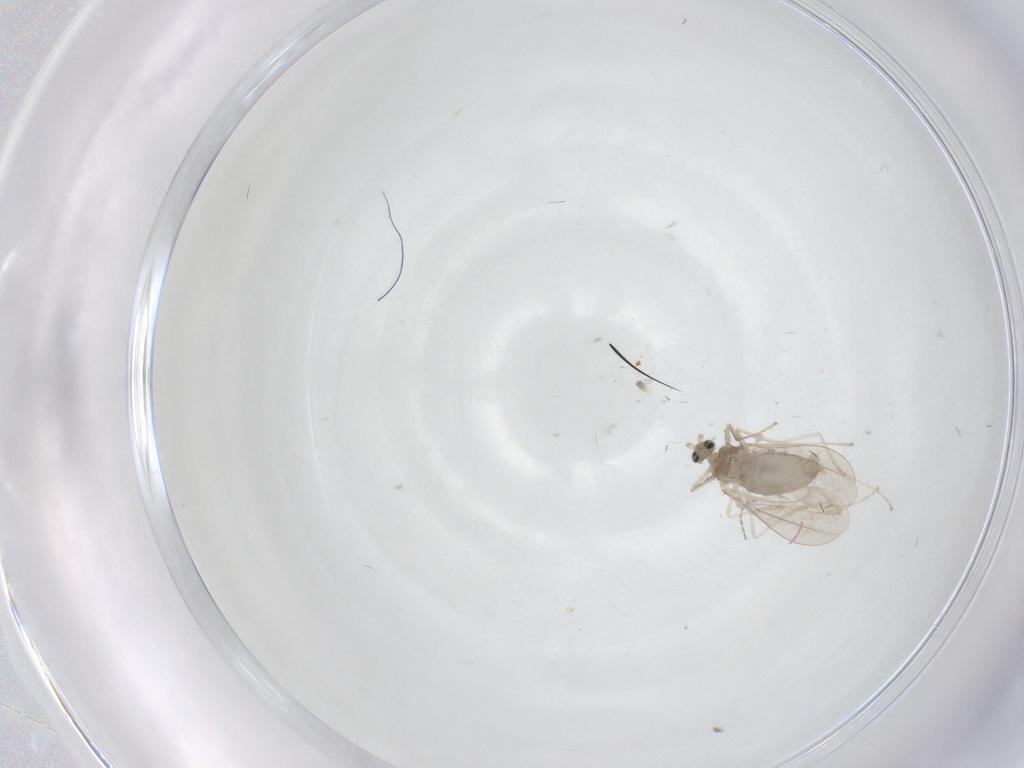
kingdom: Animalia
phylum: Arthropoda
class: Insecta
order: Diptera
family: Cecidomyiidae
